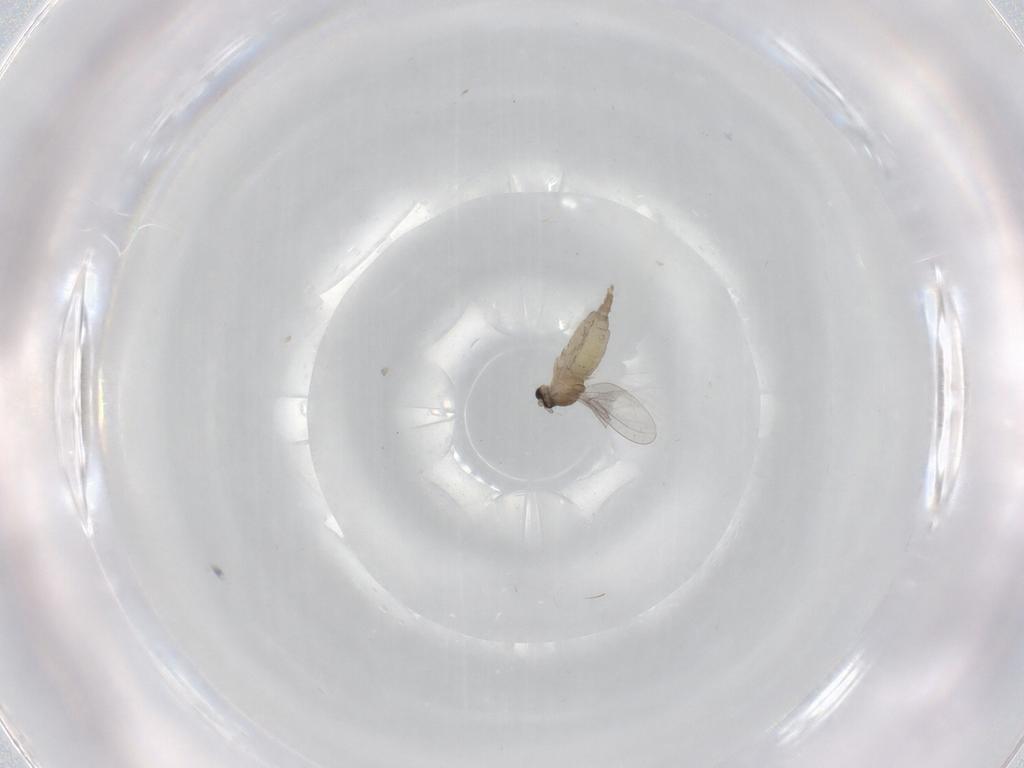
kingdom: Animalia
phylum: Arthropoda
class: Insecta
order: Diptera
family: Cecidomyiidae
